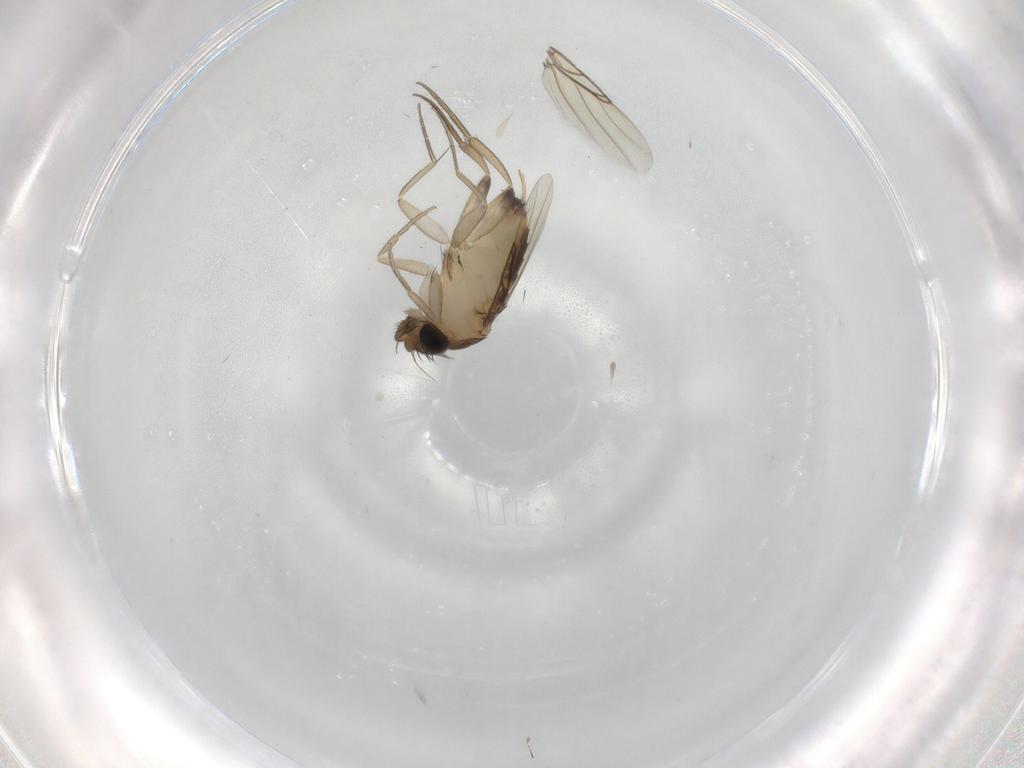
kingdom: Animalia
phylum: Arthropoda
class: Insecta
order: Diptera
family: Phoridae
